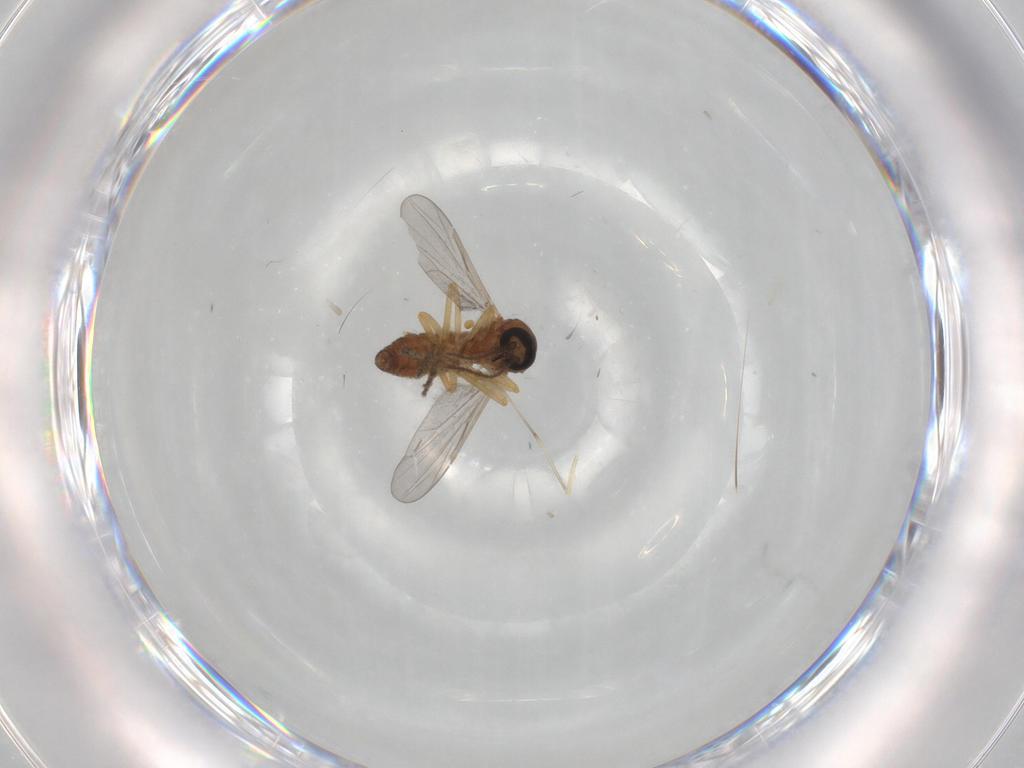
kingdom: Animalia
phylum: Arthropoda
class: Insecta
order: Diptera
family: Ceratopogonidae
